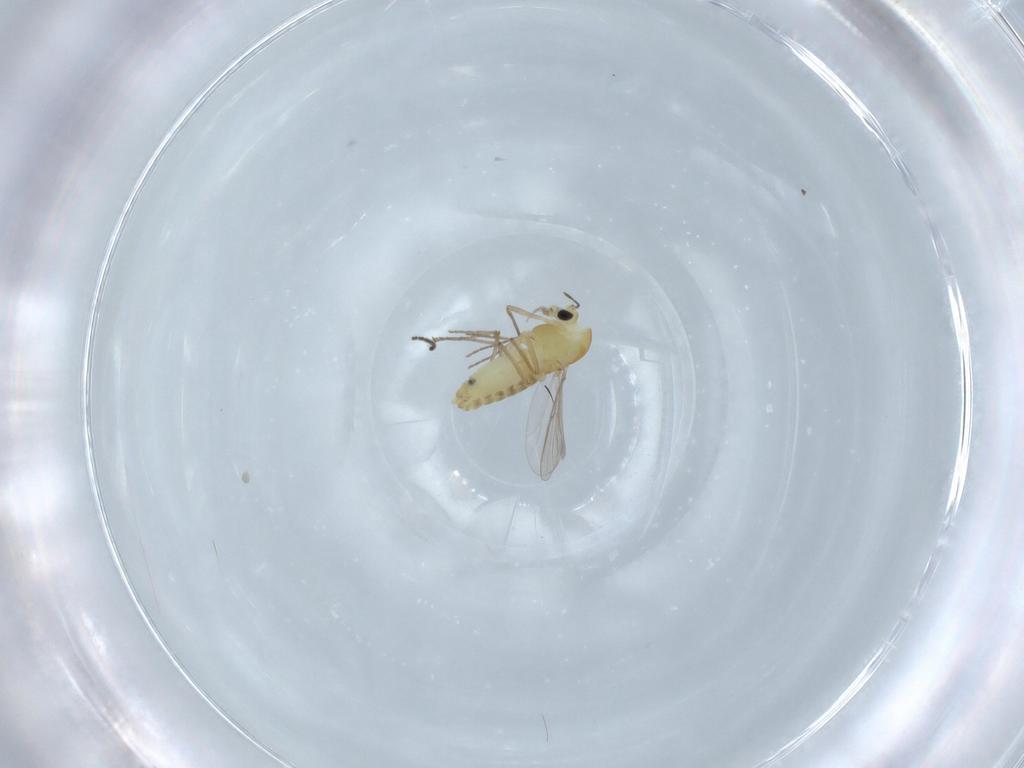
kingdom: Animalia
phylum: Arthropoda
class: Insecta
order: Diptera
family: Chironomidae
